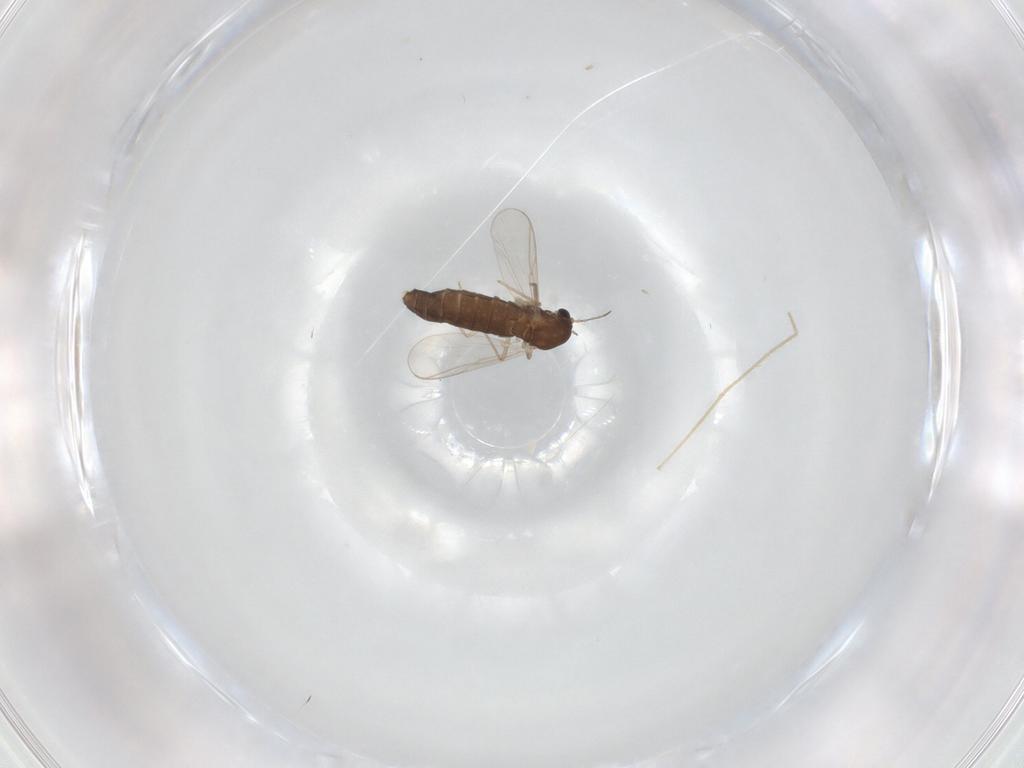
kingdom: Animalia
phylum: Arthropoda
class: Insecta
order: Diptera
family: Chironomidae
